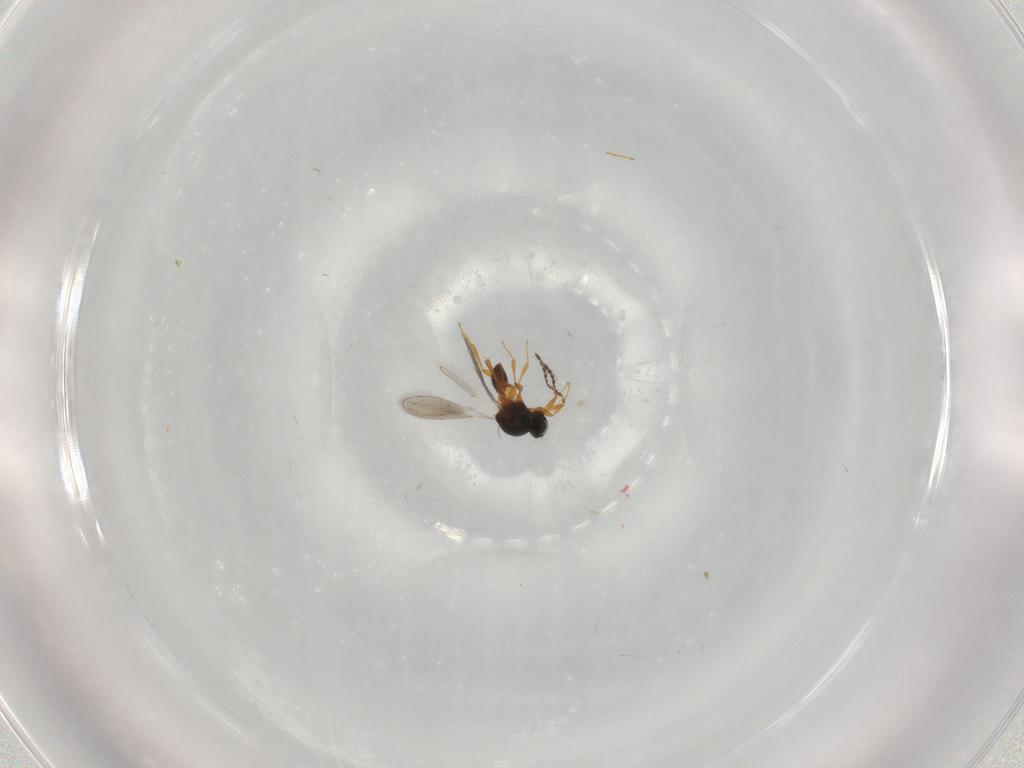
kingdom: Animalia
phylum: Arthropoda
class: Insecta
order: Hymenoptera
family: Platygastridae
